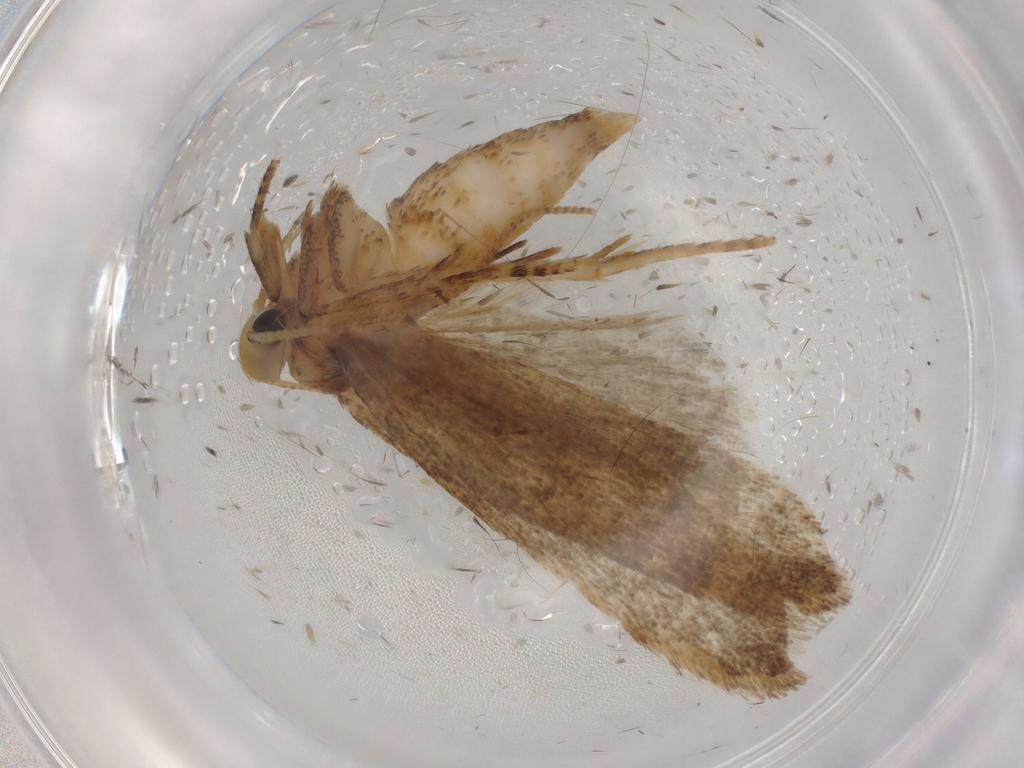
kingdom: Animalia
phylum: Arthropoda
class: Insecta
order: Lepidoptera
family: Autostichidae
